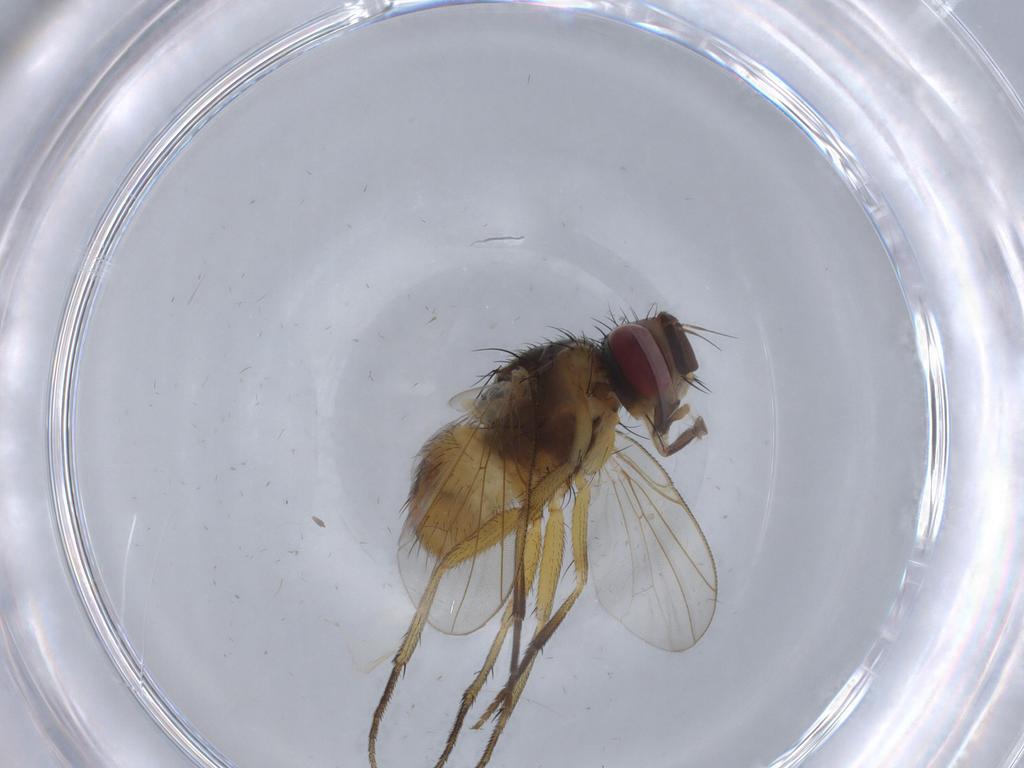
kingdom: Animalia
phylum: Arthropoda
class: Insecta
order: Diptera
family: Muscidae
